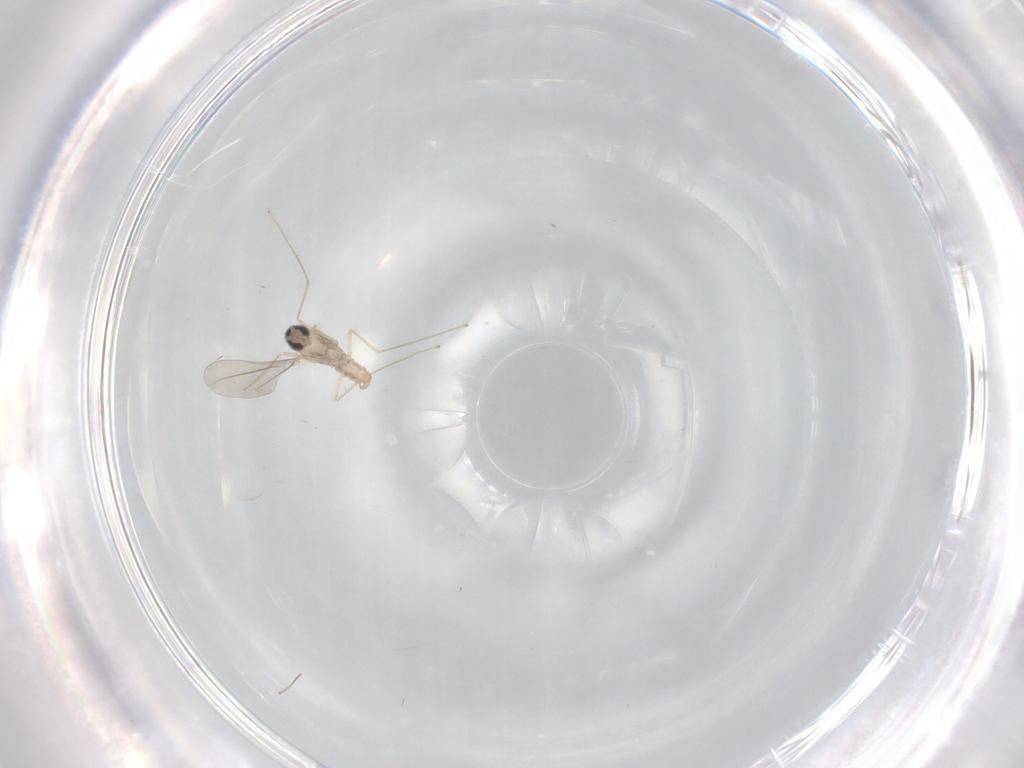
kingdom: Animalia
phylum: Arthropoda
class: Insecta
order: Diptera
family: Cecidomyiidae
